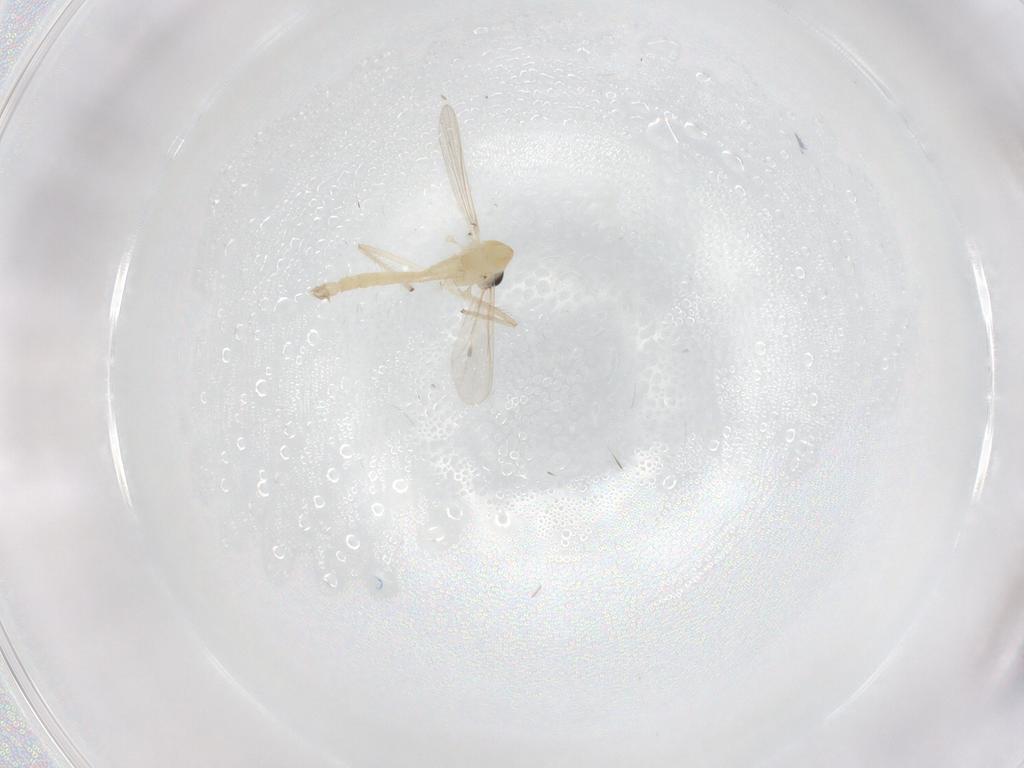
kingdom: Animalia
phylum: Arthropoda
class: Insecta
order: Diptera
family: Chironomidae
